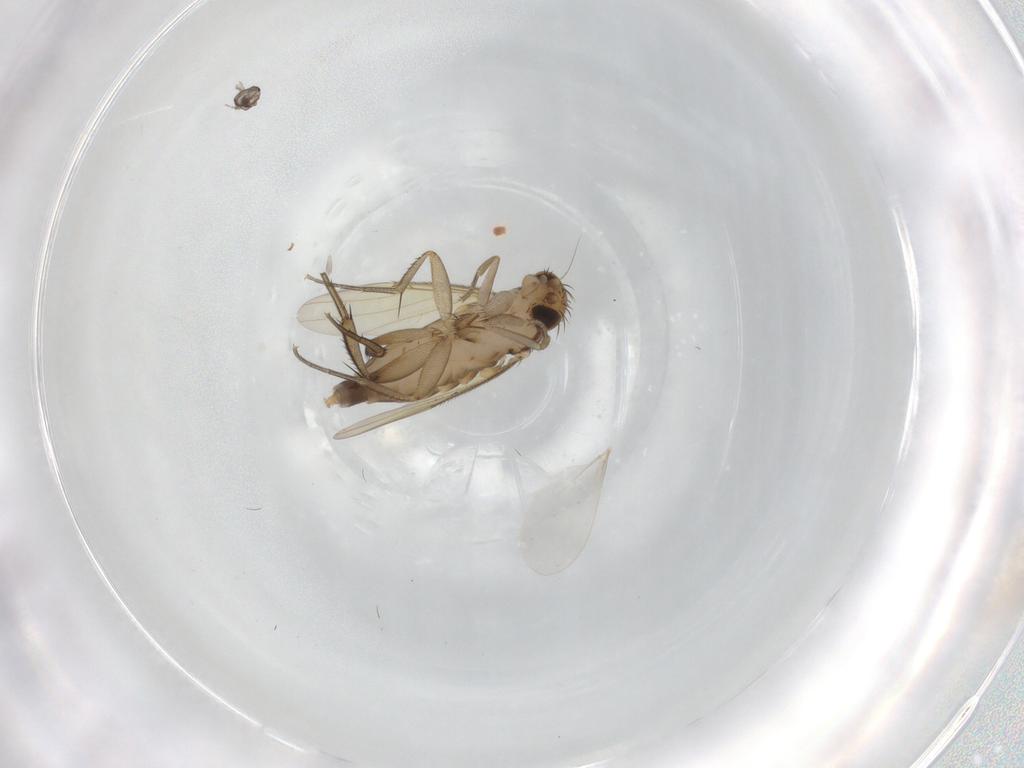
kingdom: Animalia
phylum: Arthropoda
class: Insecta
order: Diptera
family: Phoridae
